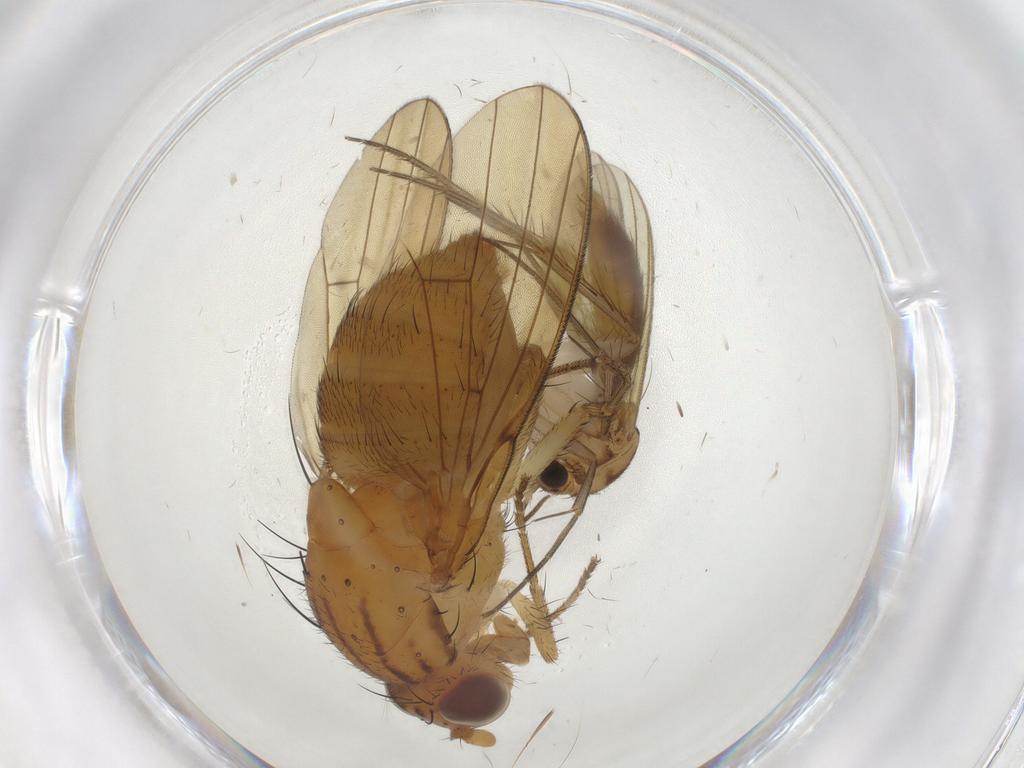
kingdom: Animalia
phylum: Arthropoda
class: Insecta
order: Diptera
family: Mycetophilidae
